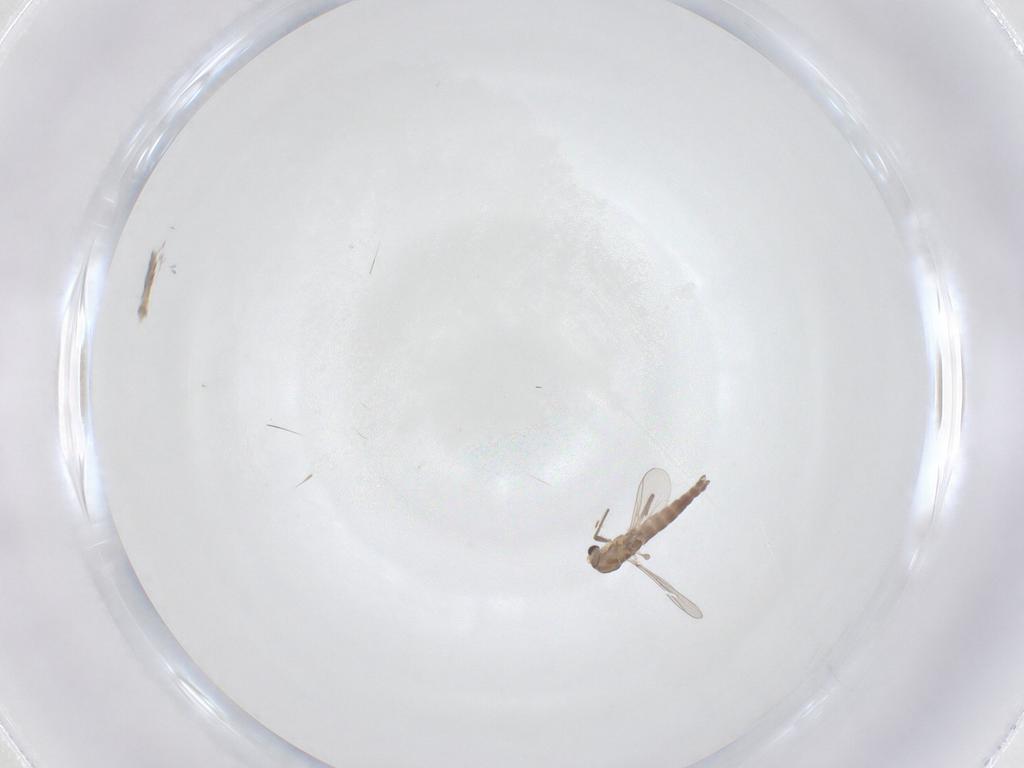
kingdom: Animalia
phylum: Arthropoda
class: Insecta
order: Diptera
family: Chironomidae
